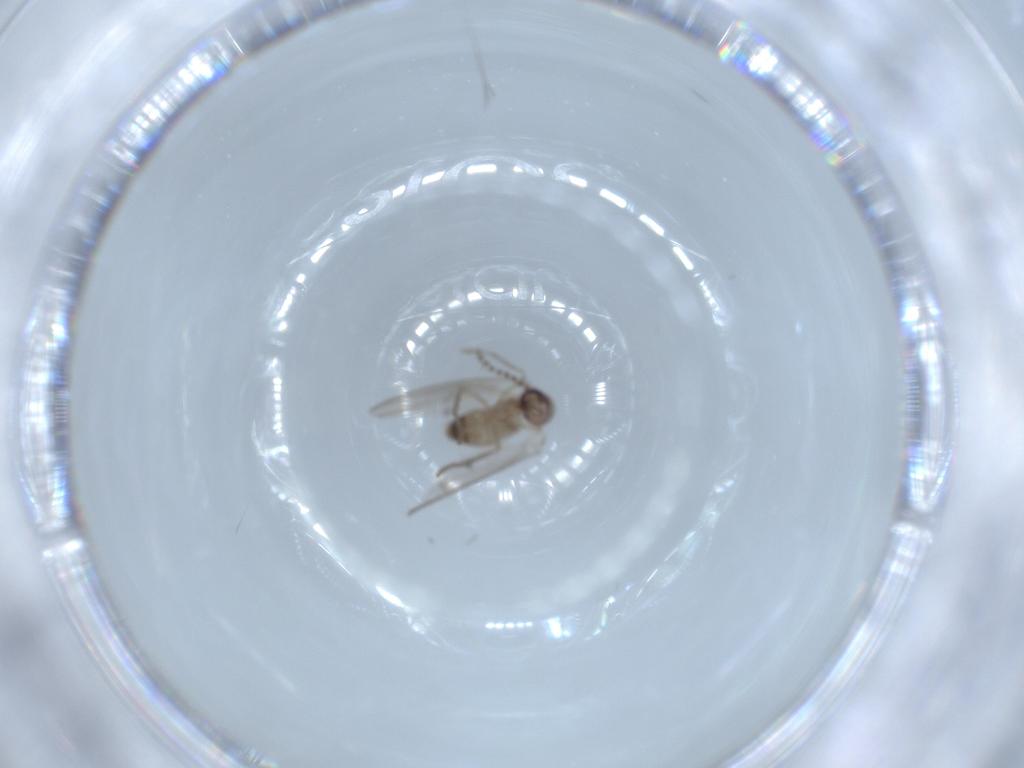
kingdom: Animalia
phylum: Arthropoda
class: Insecta
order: Diptera
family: Psychodidae
